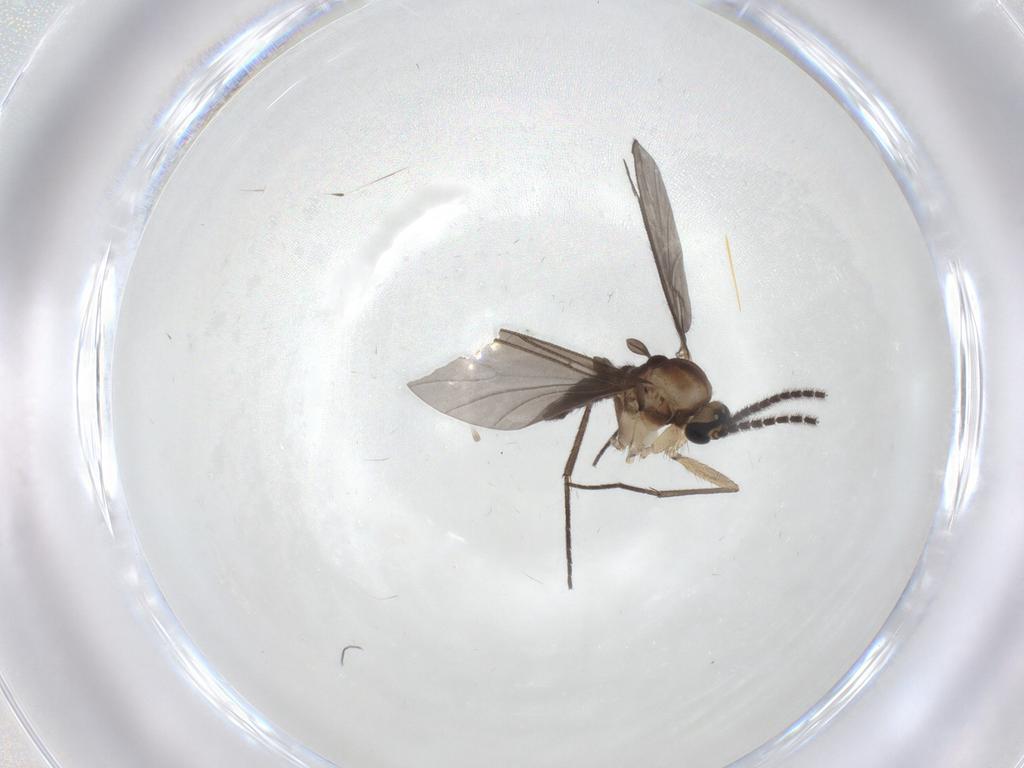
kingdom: Animalia
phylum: Arthropoda
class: Insecta
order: Diptera
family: Sciaridae
